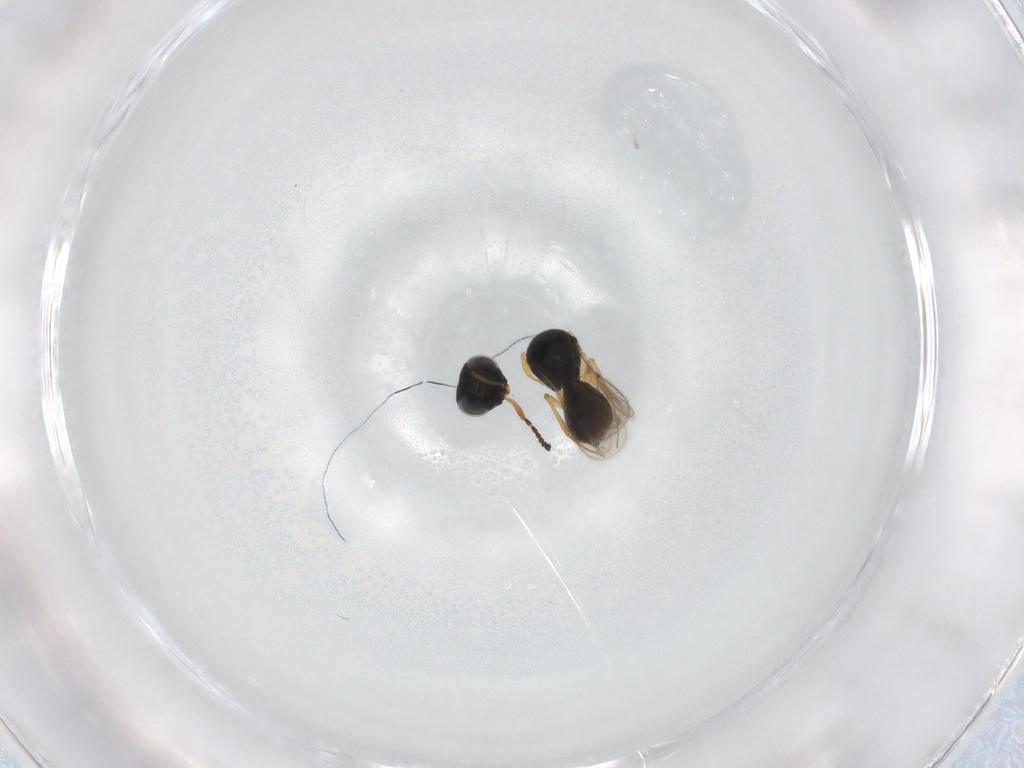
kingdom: Animalia
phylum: Arthropoda
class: Insecta
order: Hymenoptera
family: Scelionidae
